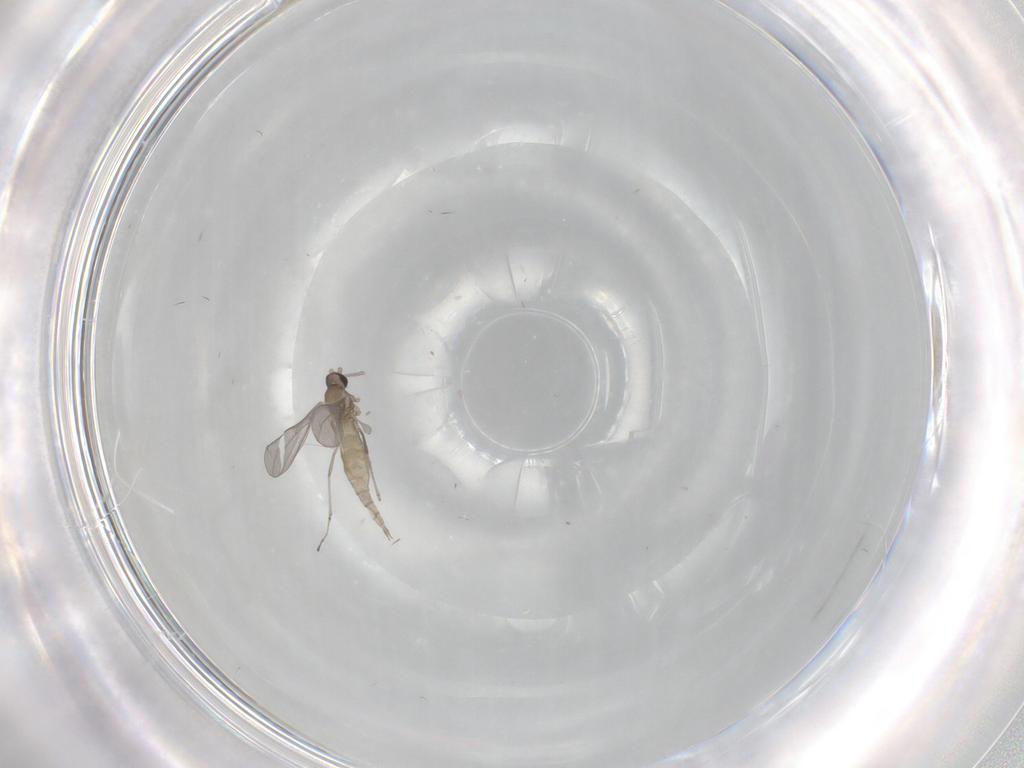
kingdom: Animalia
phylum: Arthropoda
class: Insecta
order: Diptera
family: Cecidomyiidae
